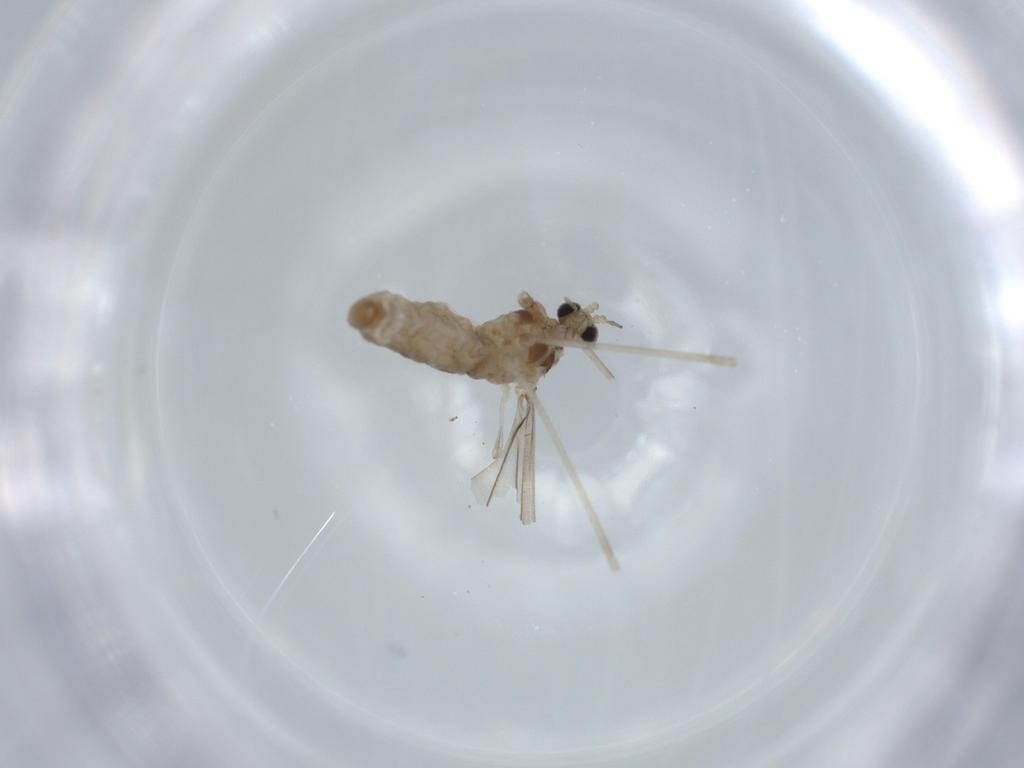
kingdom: Animalia
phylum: Arthropoda
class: Insecta
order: Diptera
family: Cecidomyiidae
